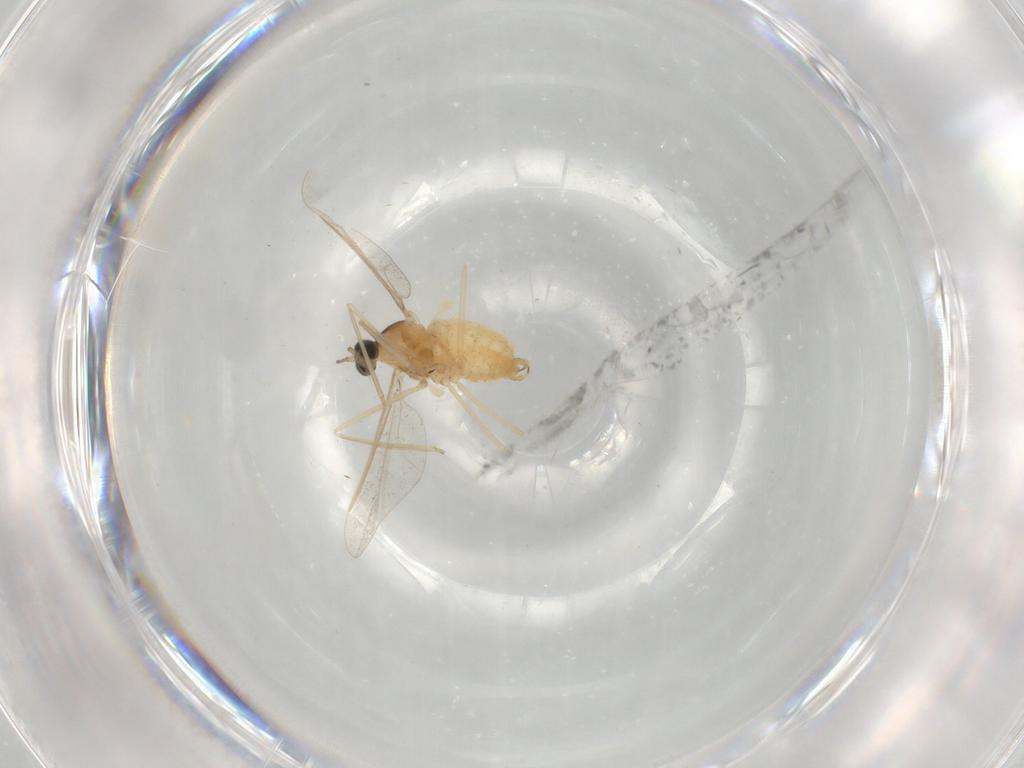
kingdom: Animalia
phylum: Arthropoda
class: Insecta
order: Diptera
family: Cecidomyiidae
